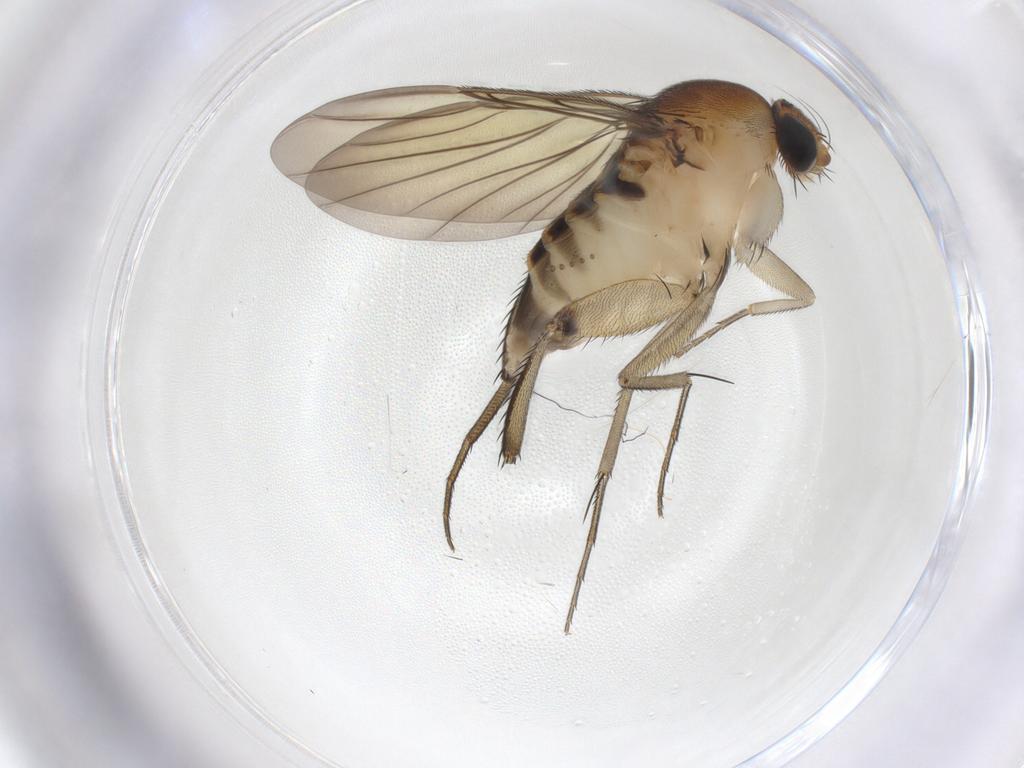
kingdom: Animalia
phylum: Arthropoda
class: Insecta
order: Diptera
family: Phoridae
